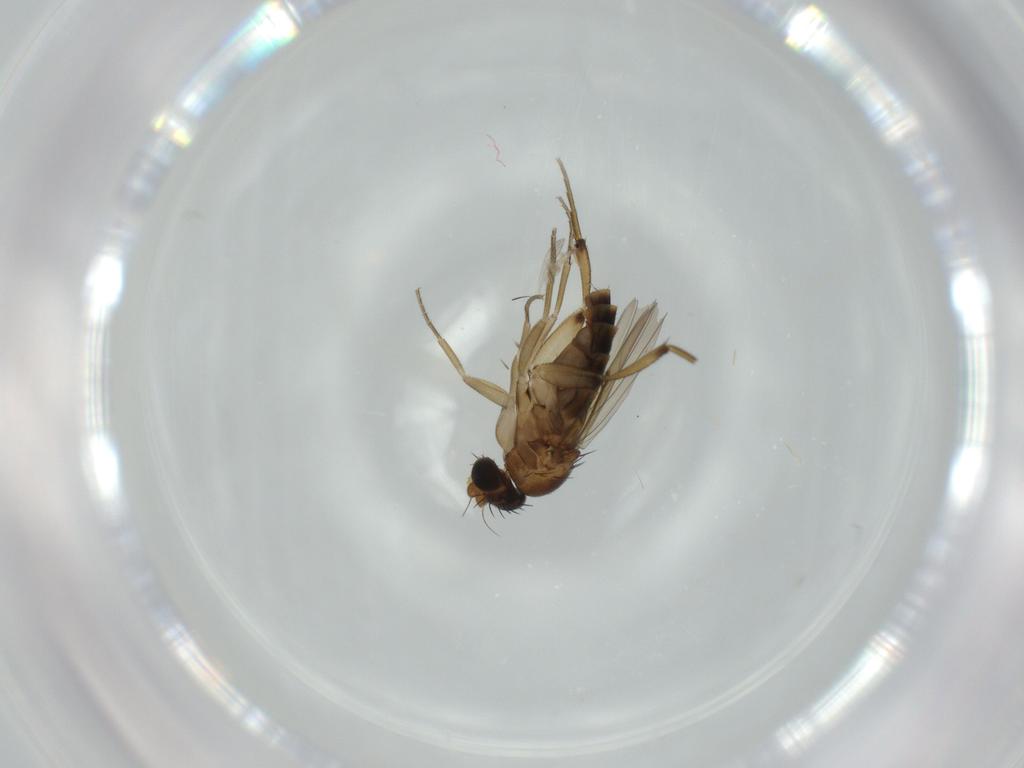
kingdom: Animalia
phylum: Arthropoda
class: Insecta
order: Diptera
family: Phoridae
